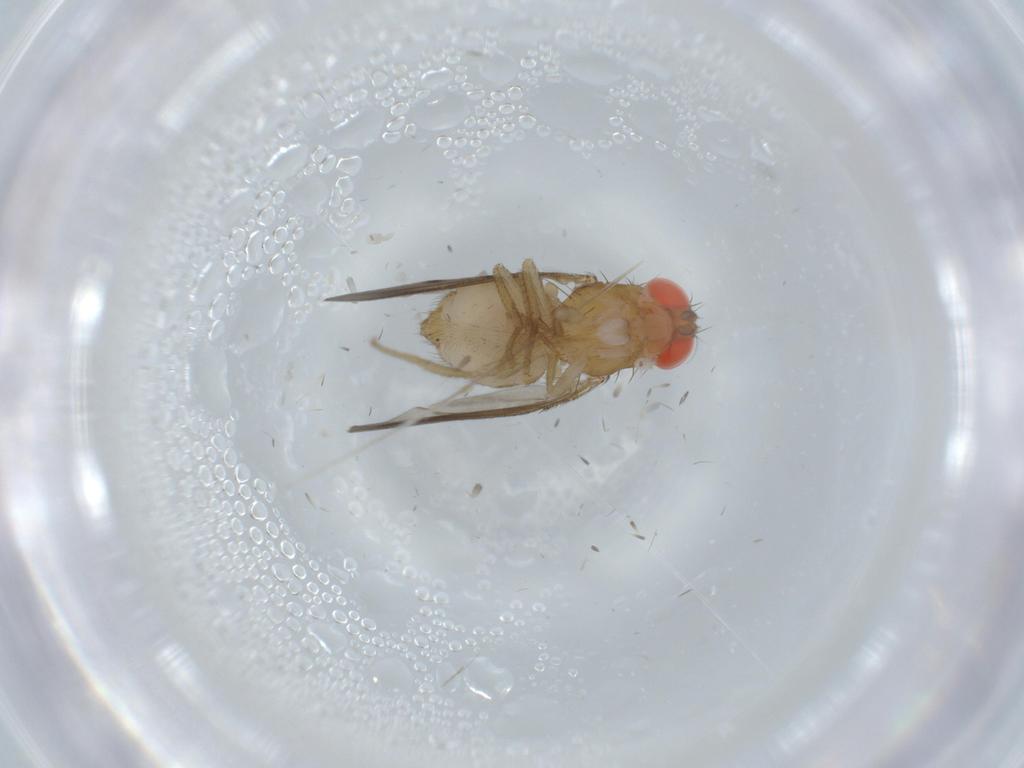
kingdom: Animalia
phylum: Arthropoda
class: Insecta
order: Diptera
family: Drosophilidae
